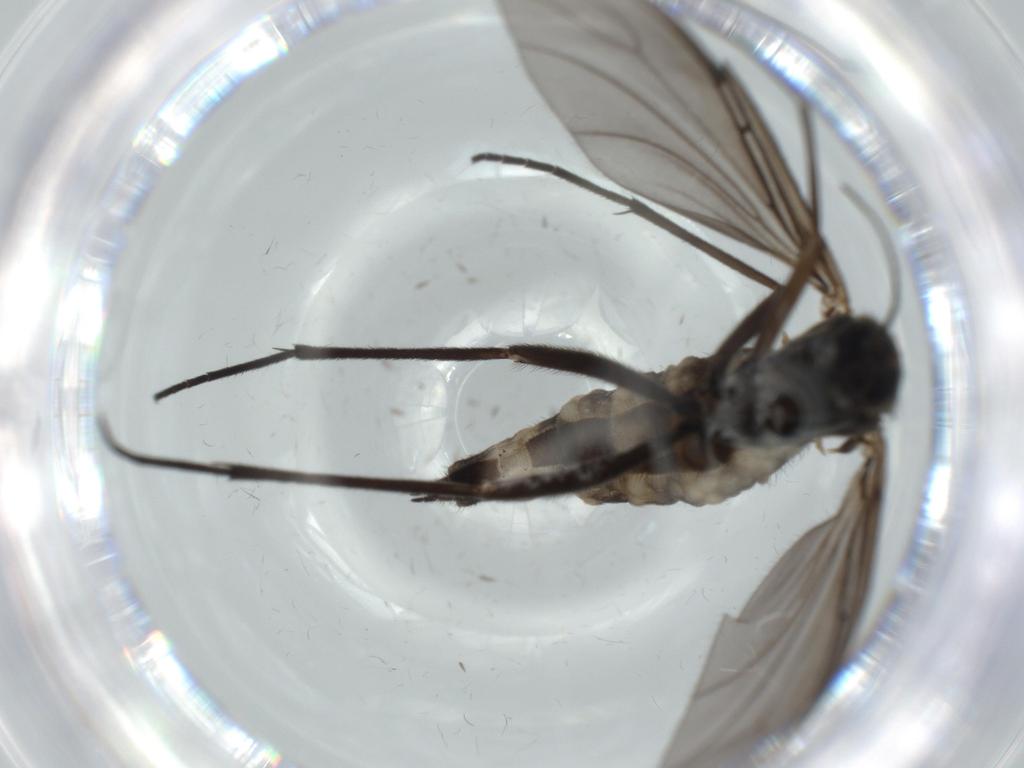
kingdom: Animalia
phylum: Arthropoda
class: Insecta
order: Diptera
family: Sciaridae
